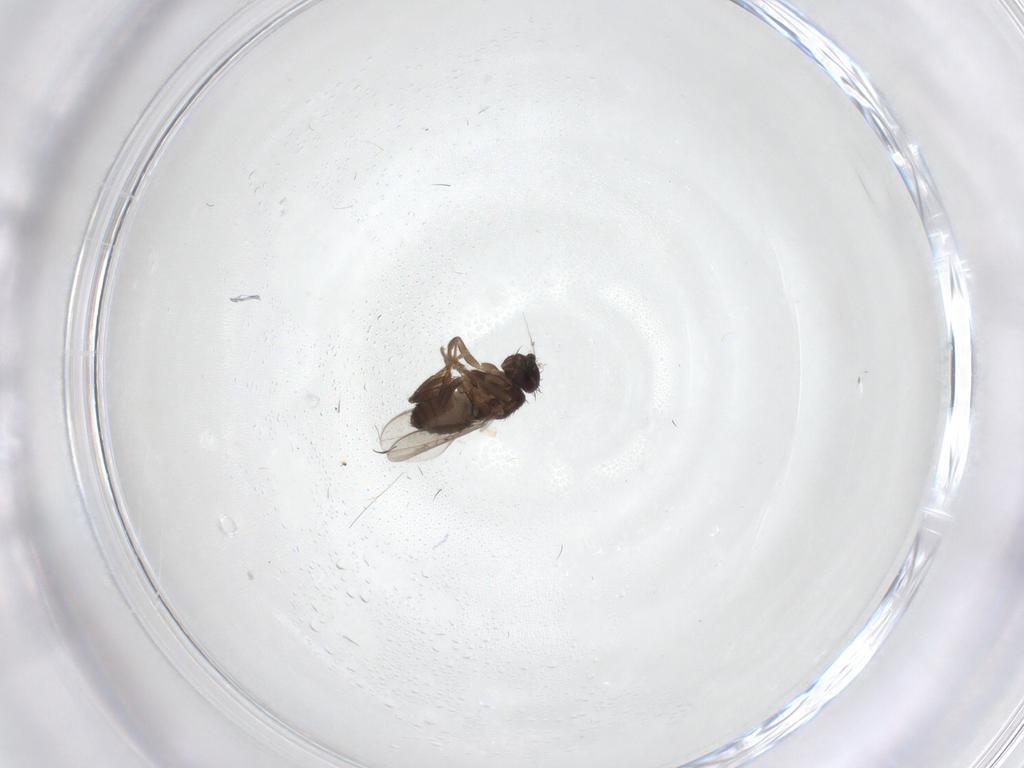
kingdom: Animalia
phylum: Arthropoda
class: Insecta
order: Diptera
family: Sphaeroceridae
